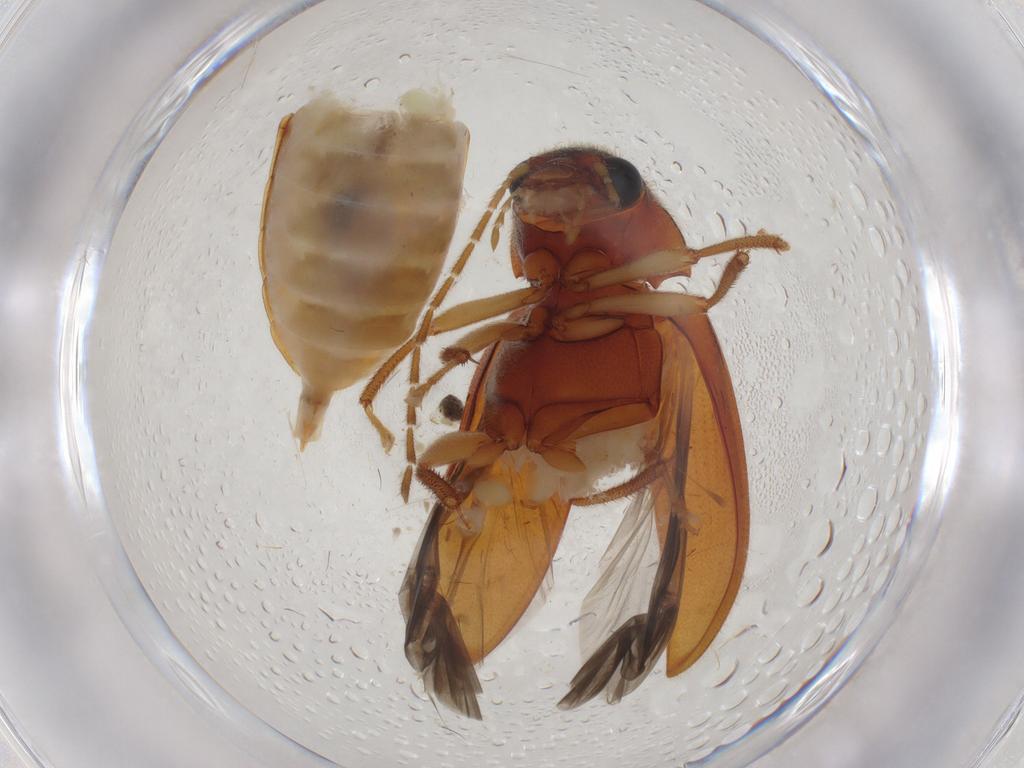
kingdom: Animalia
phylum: Arthropoda
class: Insecta
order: Coleoptera
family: Ptilodactylidae
